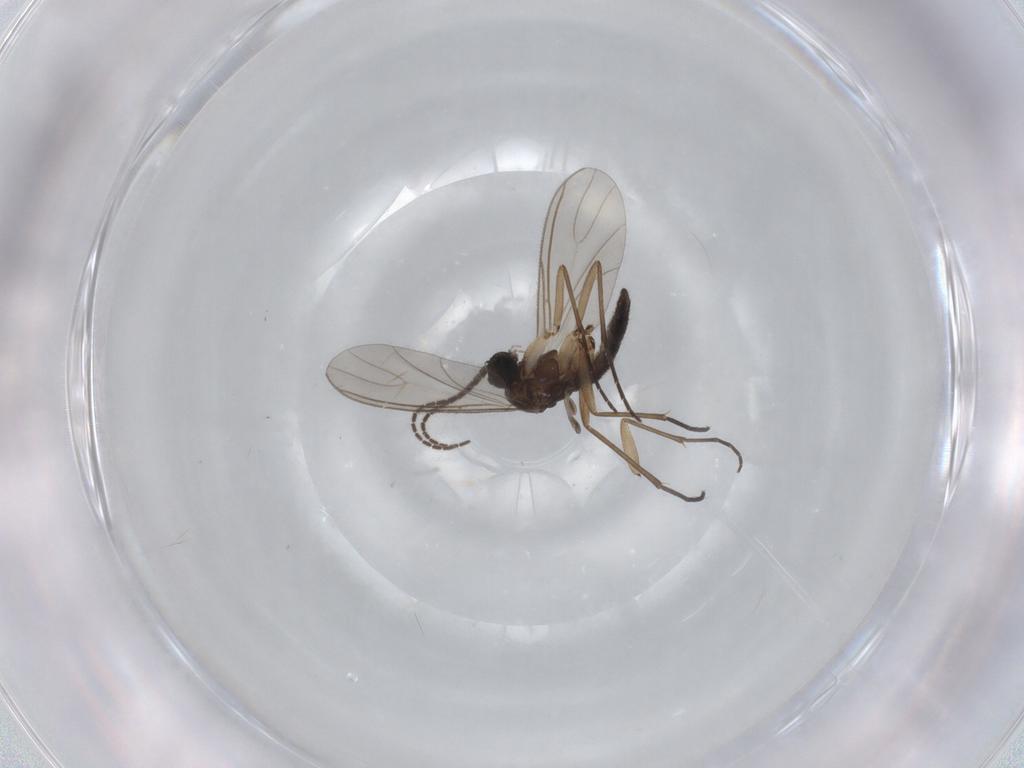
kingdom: Animalia
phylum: Arthropoda
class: Insecta
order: Diptera
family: Sciaridae
